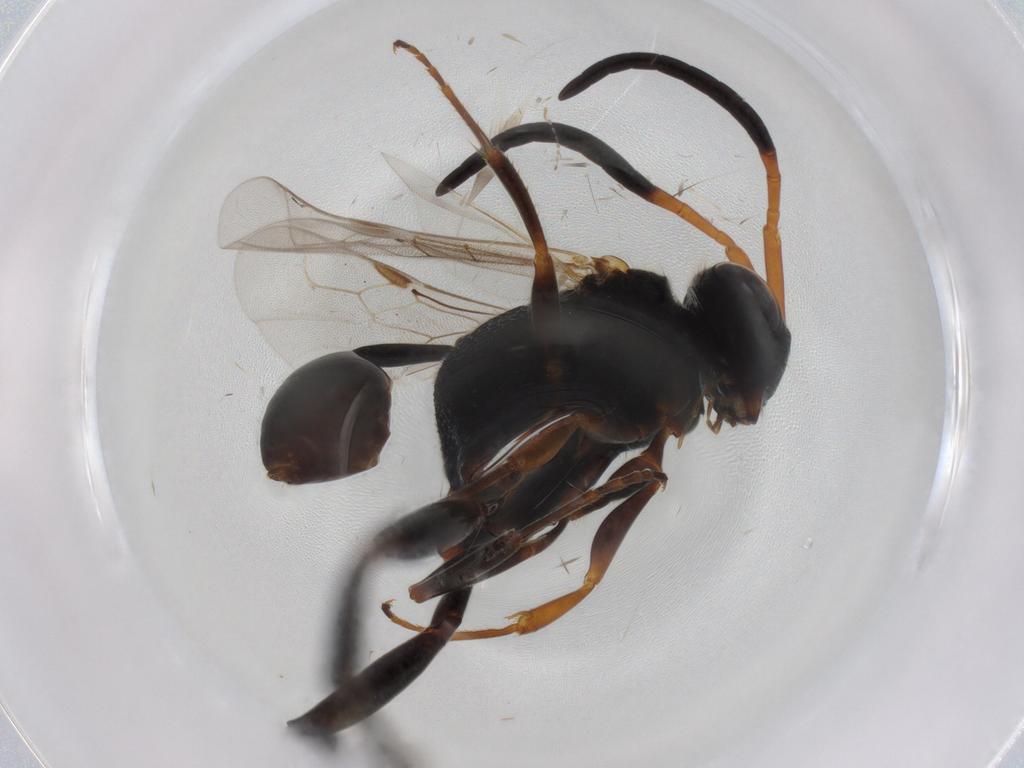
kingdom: Animalia
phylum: Arthropoda
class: Insecta
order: Hymenoptera
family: Evaniidae
